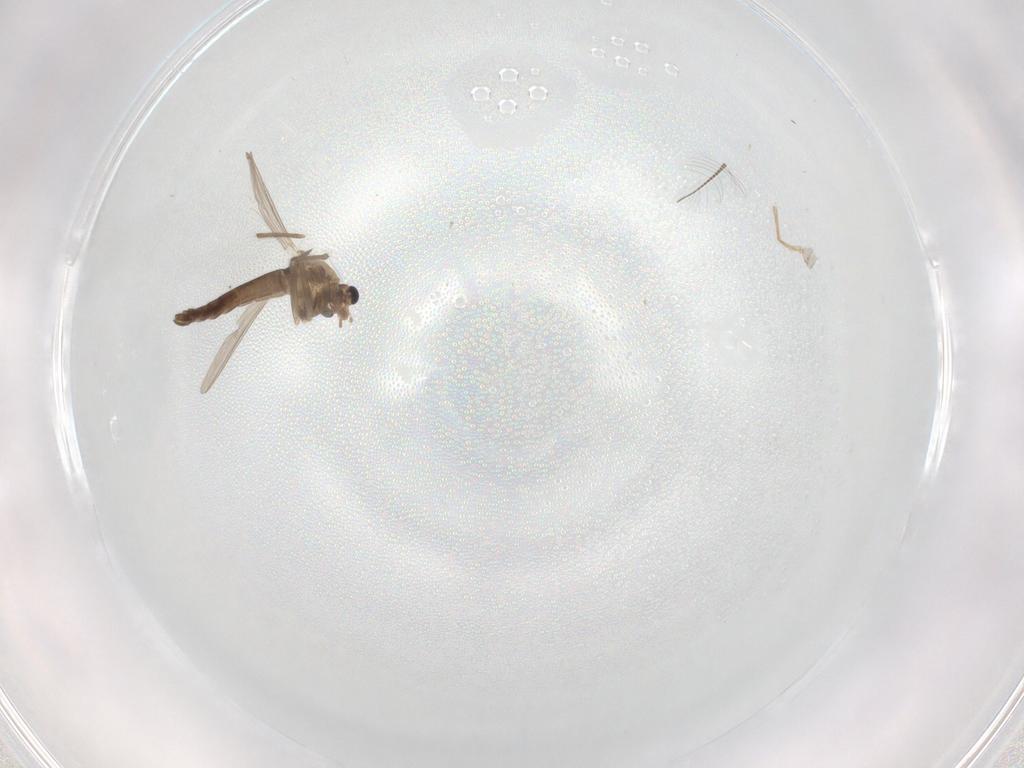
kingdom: Animalia
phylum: Arthropoda
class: Insecta
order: Diptera
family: Chironomidae
